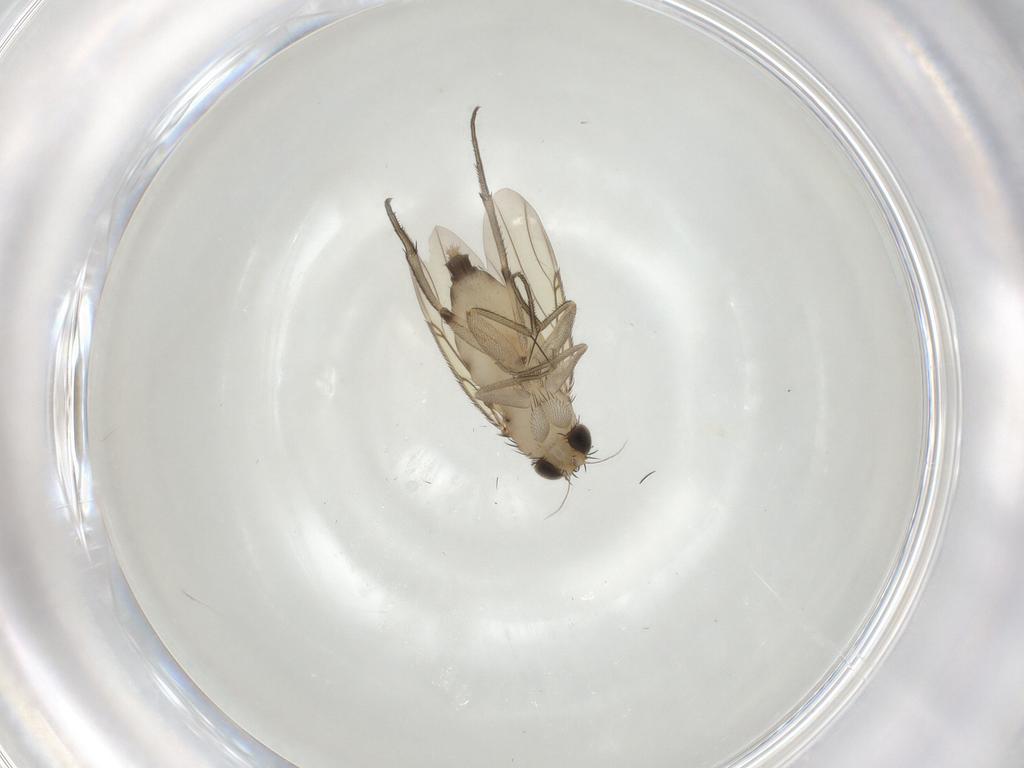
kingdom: Animalia
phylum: Arthropoda
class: Insecta
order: Diptera
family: Phoridae
